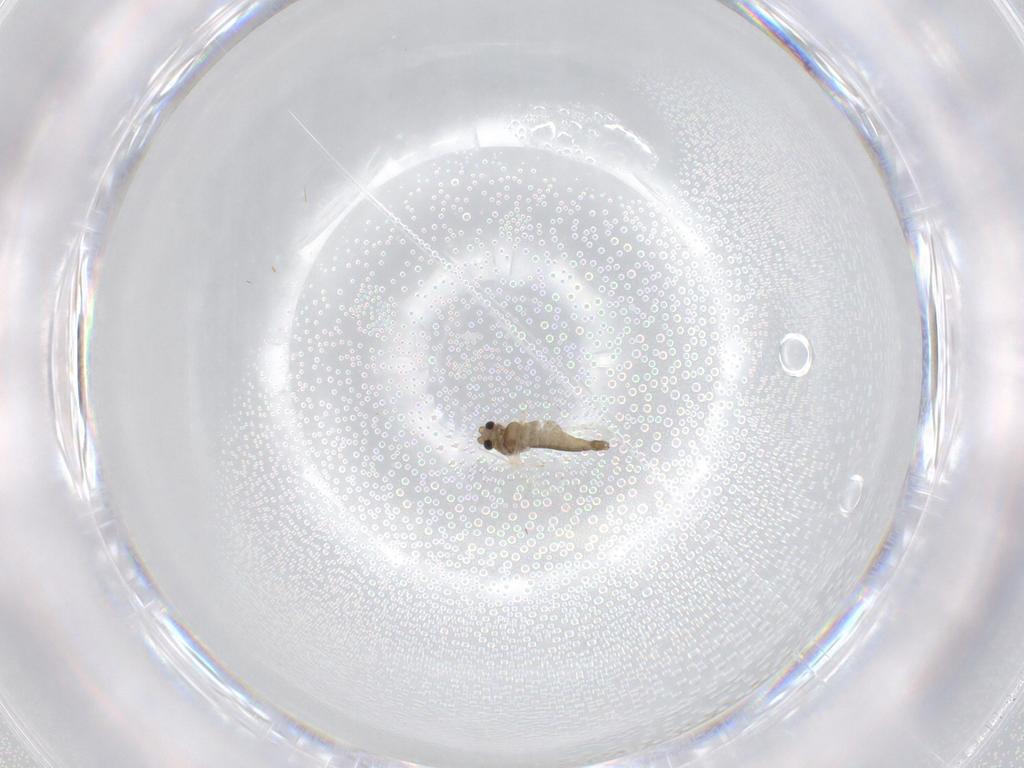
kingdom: Animalia
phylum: Arthropoda
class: Insecta
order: Diptera
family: Chironomidae
